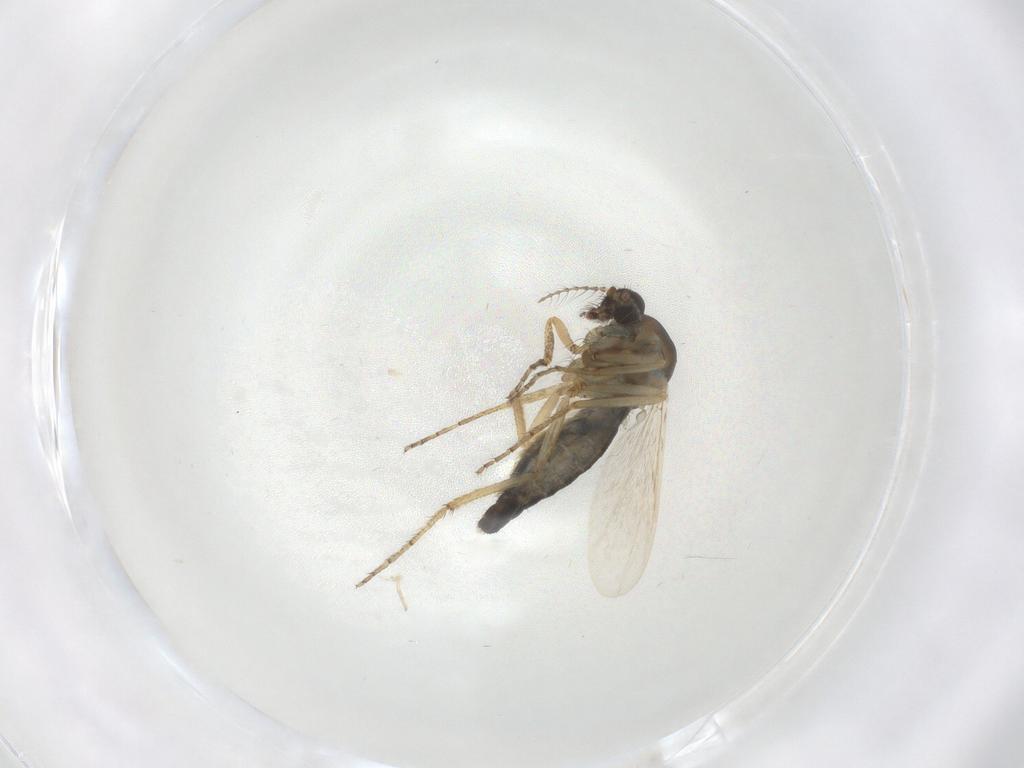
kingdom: Animalia
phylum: Arthropoda
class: Insecta
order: Diptera
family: Ceratopogonidae
